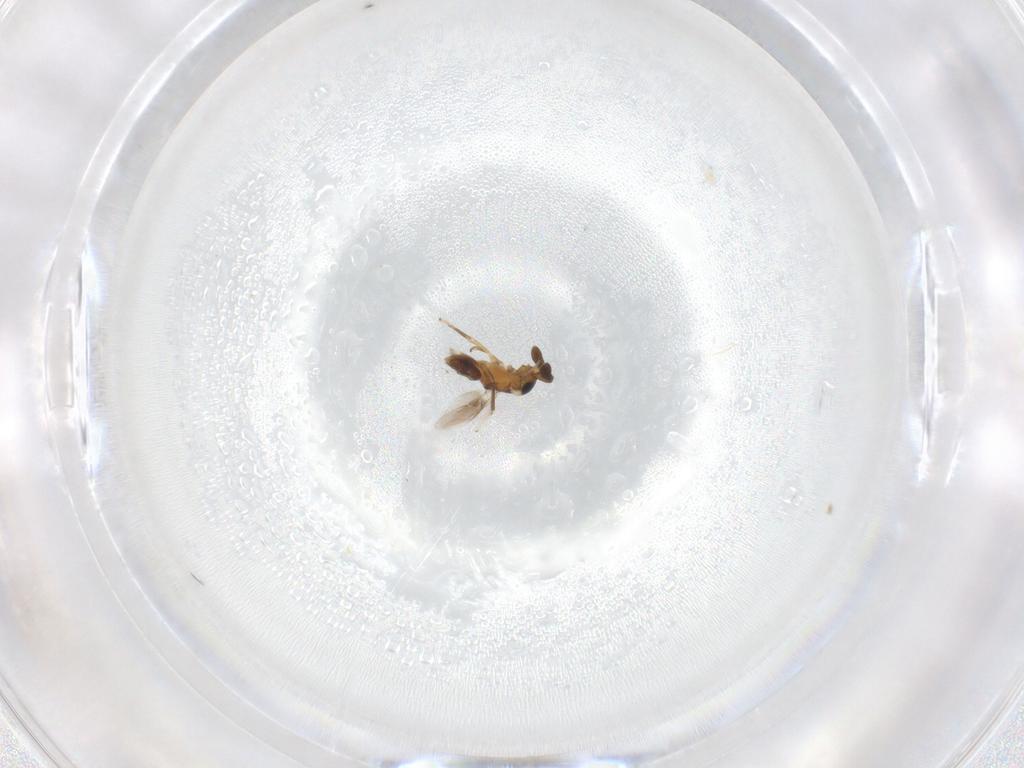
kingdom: Animalia
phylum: Arthropoda
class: Insecta
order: Hymenoptera
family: Encyrtidae
